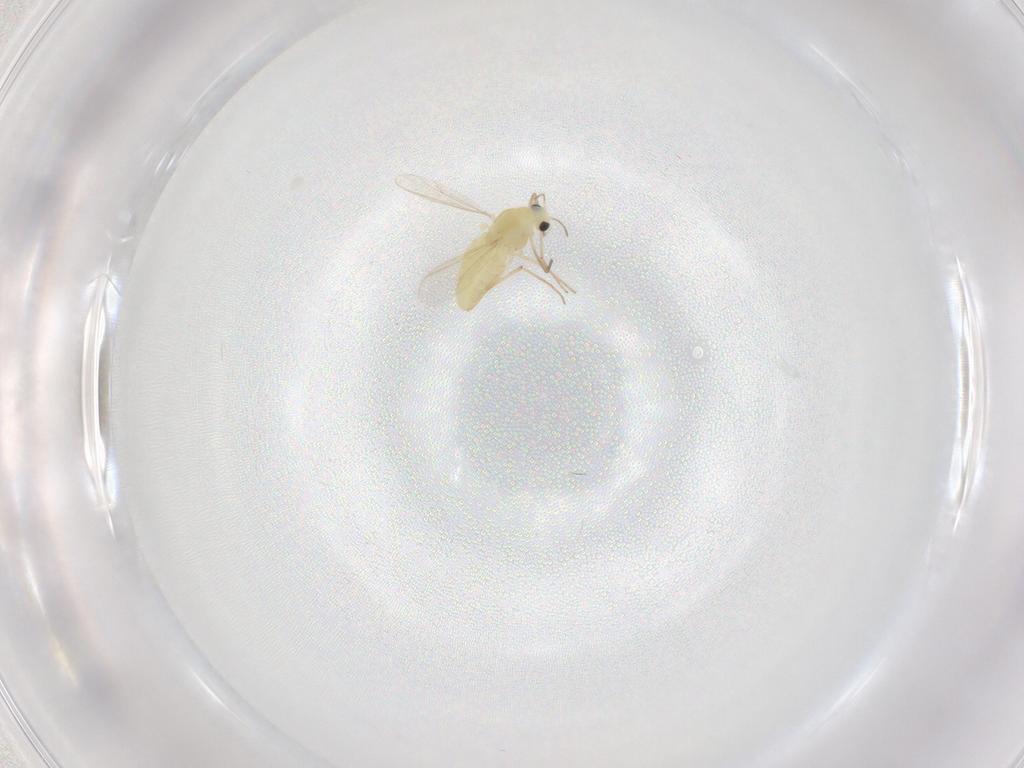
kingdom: Animalia
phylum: Arthropoda
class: Insecta
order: Diptera
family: Chironomidae
